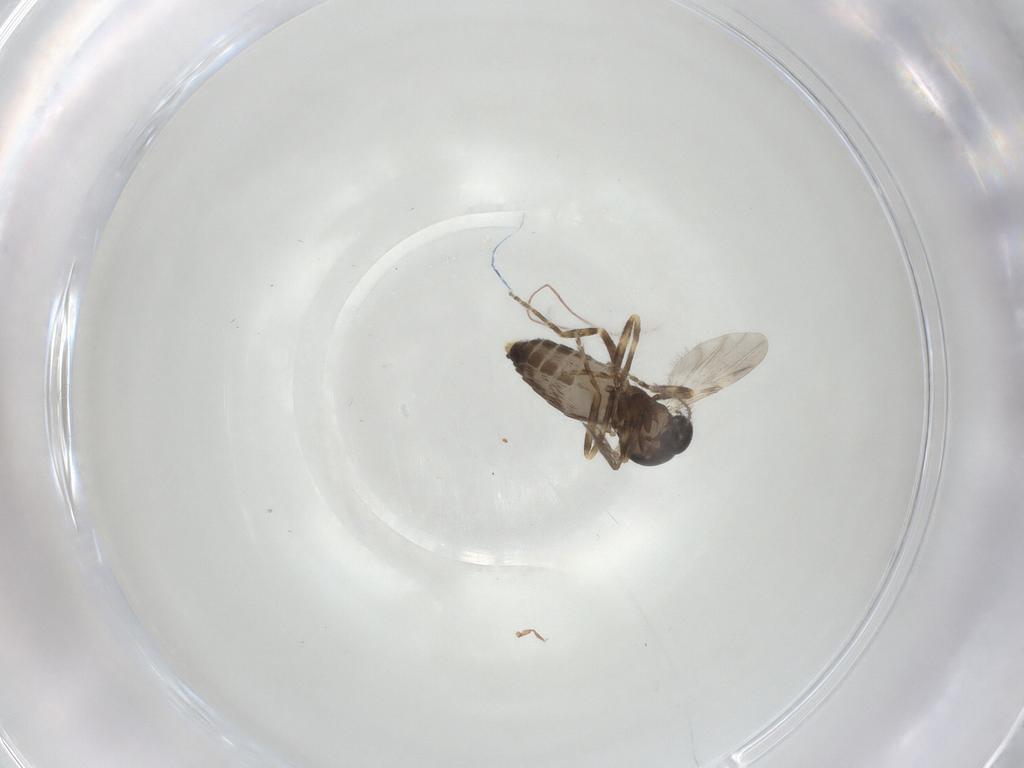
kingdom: Animalia
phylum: Arthropoda
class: Insecta
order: Diptera
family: Ceratopogonidae
